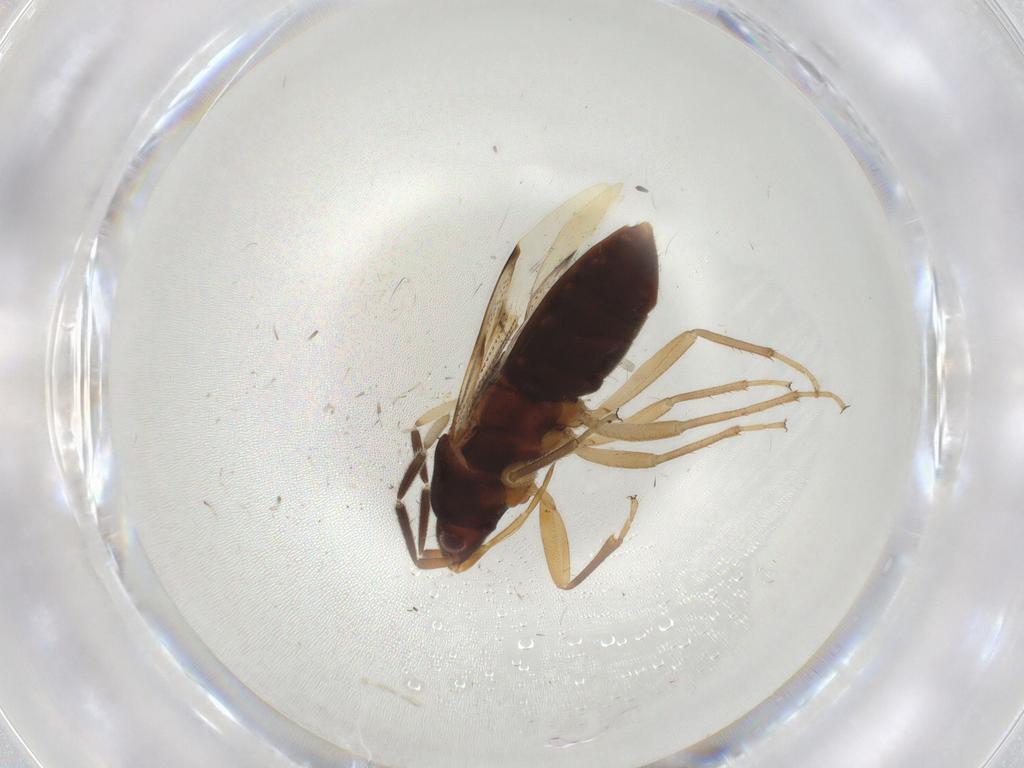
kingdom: Animalia
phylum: Arthropoda
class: Insecta
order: Hemiptera
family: Rhyparochromidae
